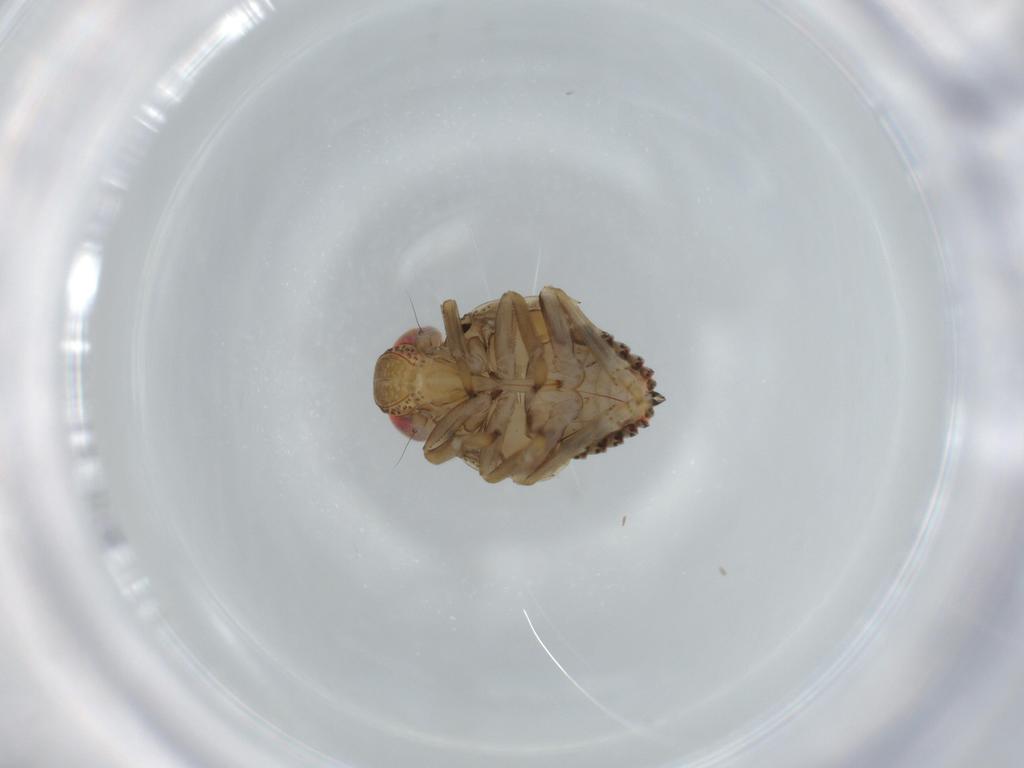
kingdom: Animalia
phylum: Arthropoda
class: Insecta
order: Hemiptera
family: Issidae
